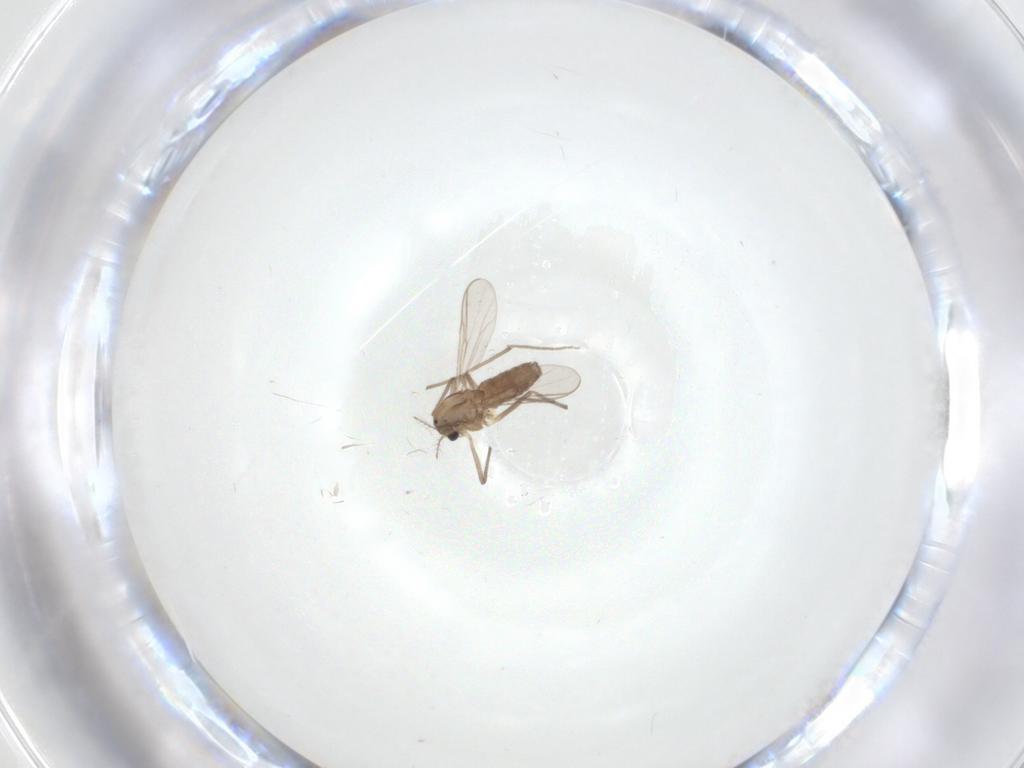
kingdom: Animalia
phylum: Arthropoda
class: Insecta
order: Diptera
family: Chironomidae
